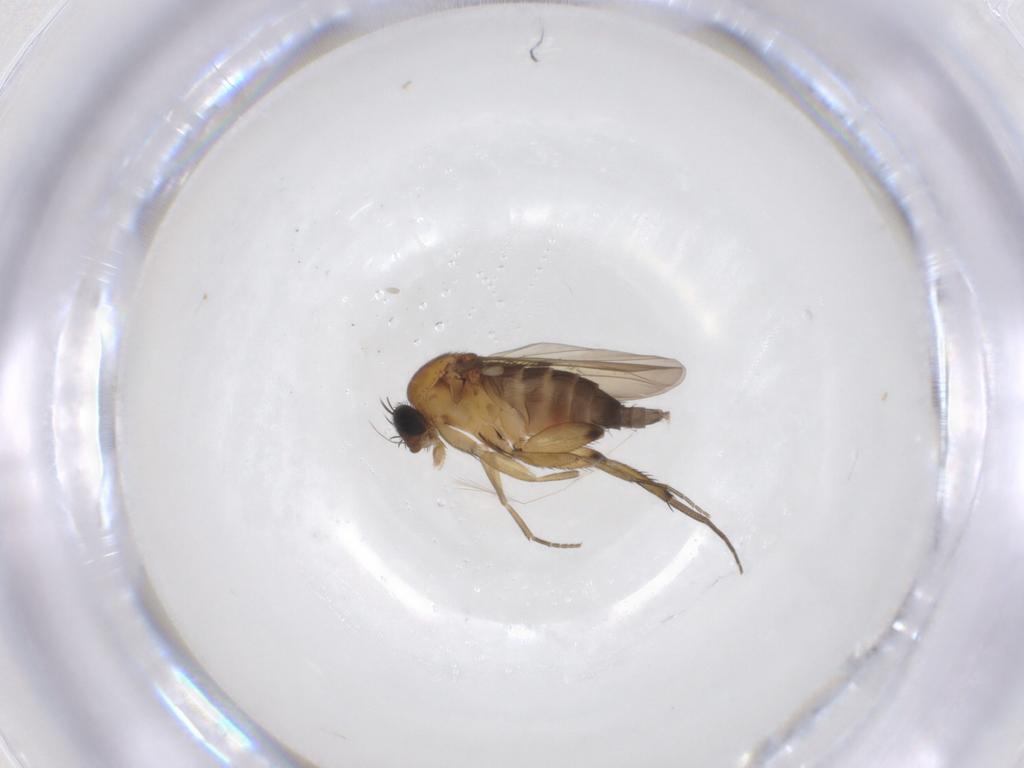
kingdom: Animalia
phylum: Arthropoda
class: Insecta
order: Diptera
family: Phoridae
